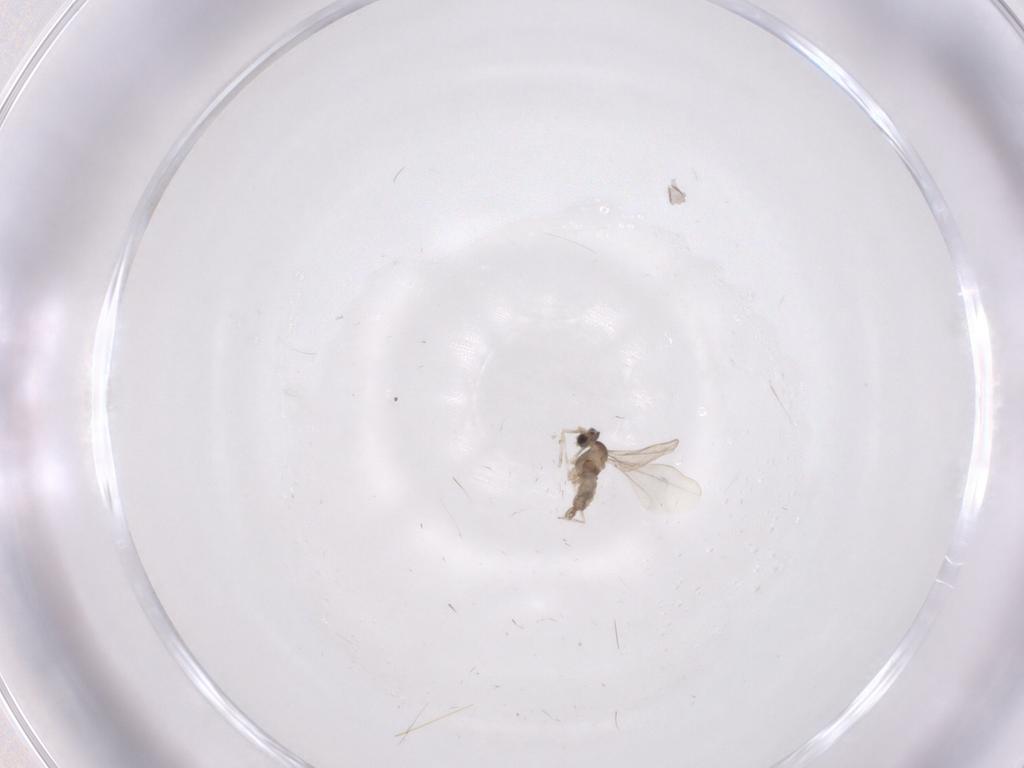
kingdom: Animalia
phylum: Arthropoda
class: Insecta
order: Diptera
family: Cecidomyiidae
